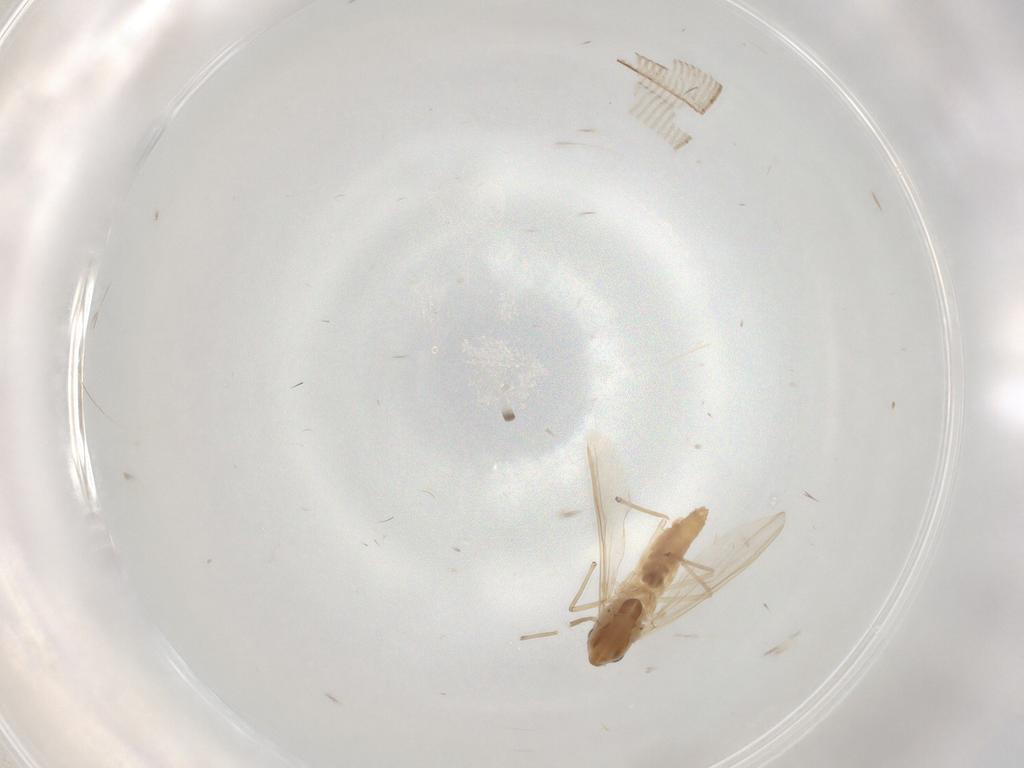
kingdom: Animalia
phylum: Arthropoda
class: Insecta
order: Diptera
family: Chironomidae
